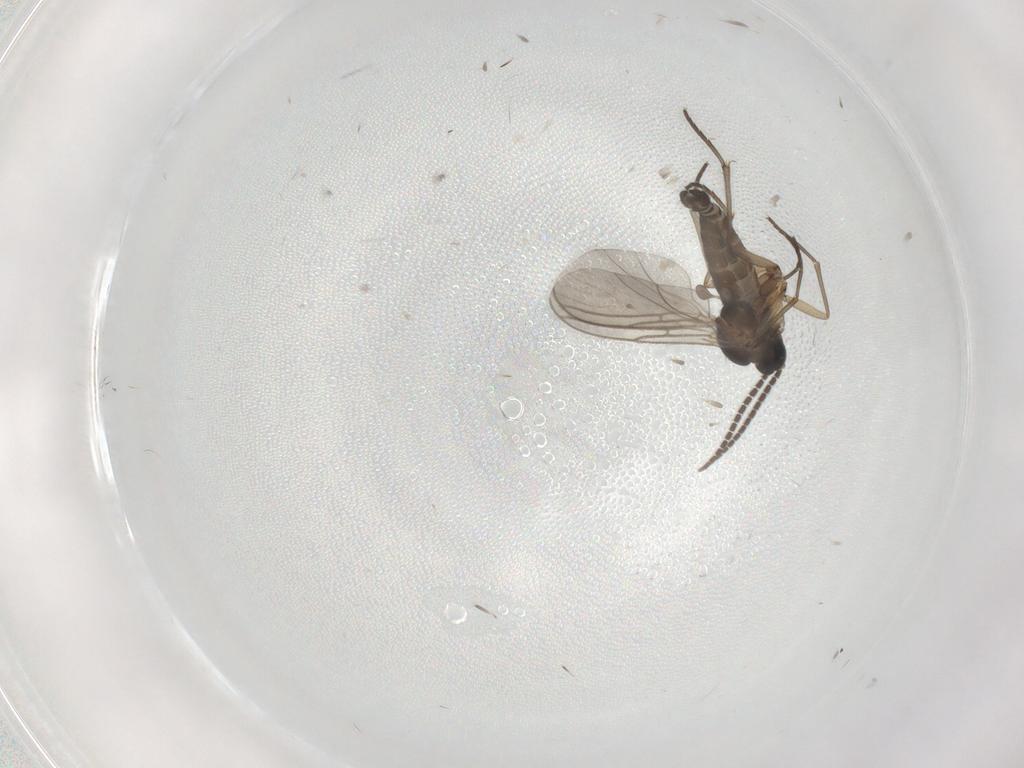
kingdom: Animalia
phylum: Arthropoda
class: Insecta
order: Diptera
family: Sciaridae
